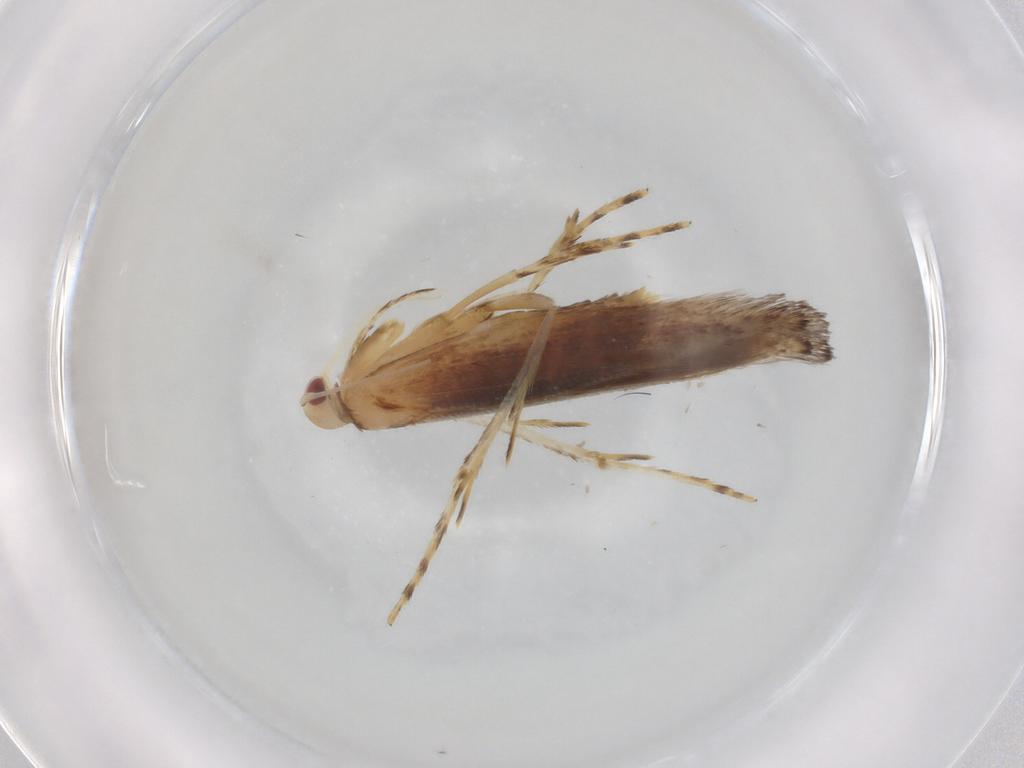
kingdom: Animalia
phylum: Arthropoda
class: Insecta
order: Lepidoptera
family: Cosmopterigidae
